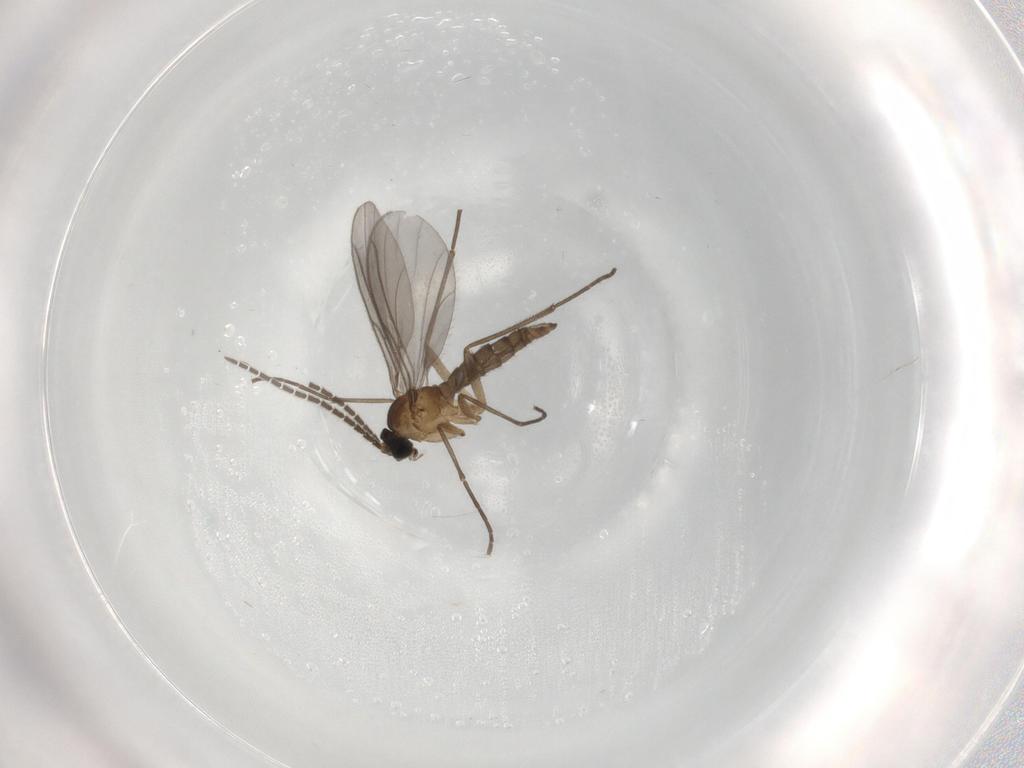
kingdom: Animalia
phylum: Arthropoda
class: Insecta
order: Diptera
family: Sciaridae
